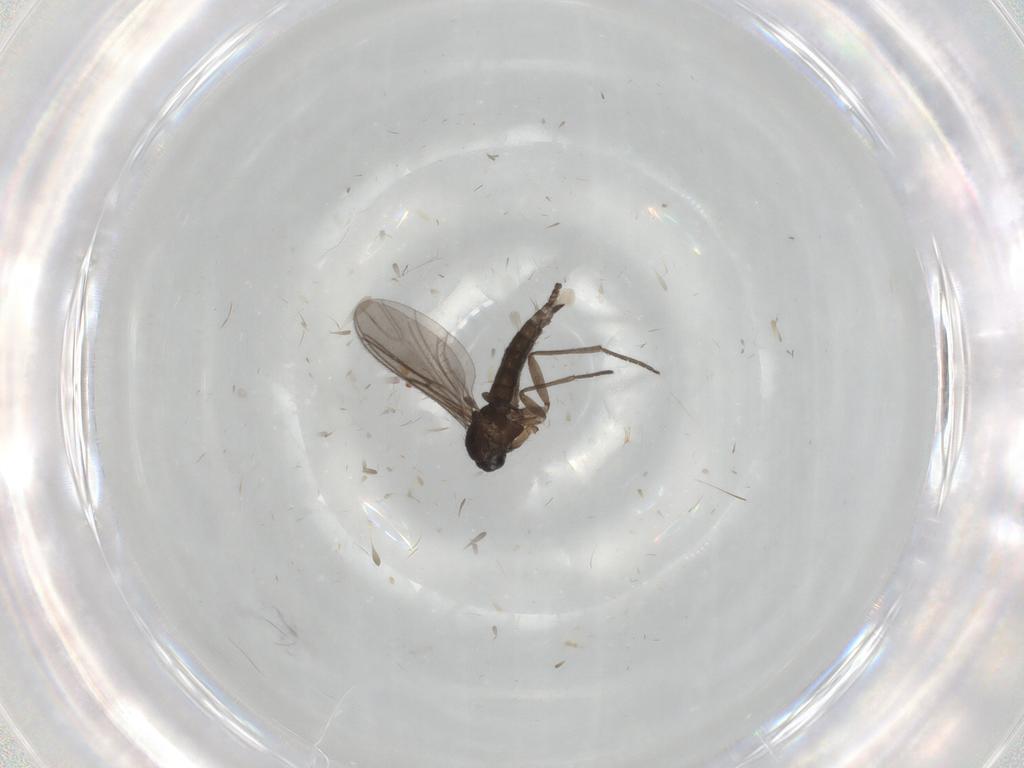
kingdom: Animalia
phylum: Arthropoda
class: Insecta
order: Diptera
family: Sciaridae
